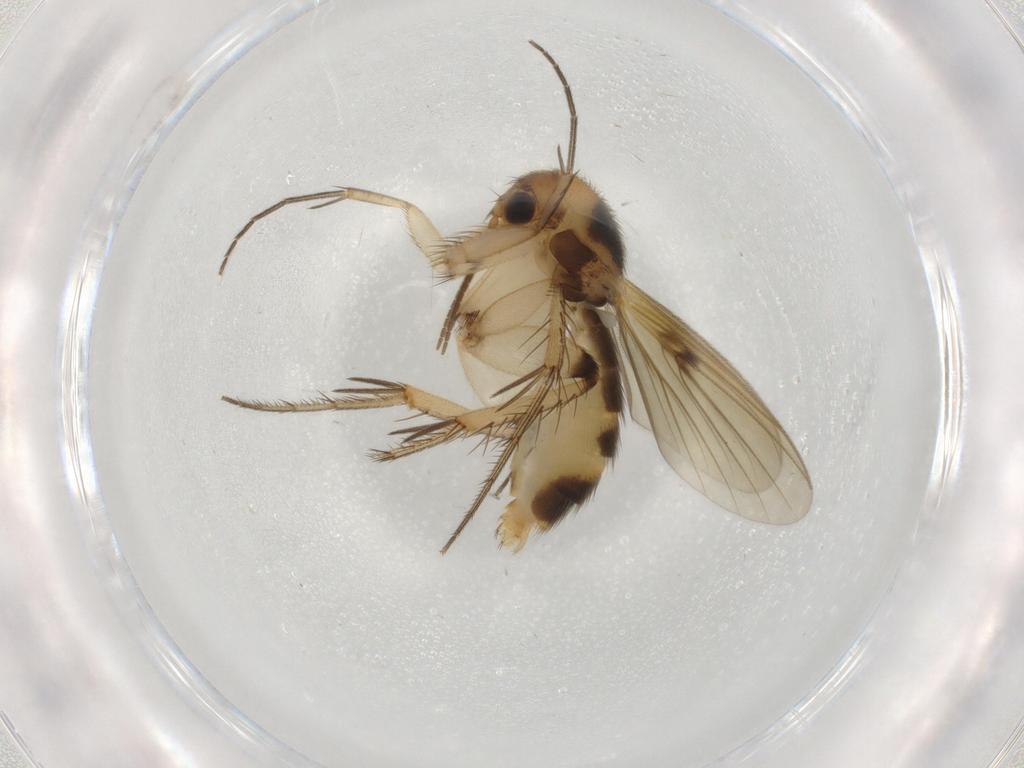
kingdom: Animalia
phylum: Arthropoda
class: Insecta
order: Diptera
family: Mycetophilidae
